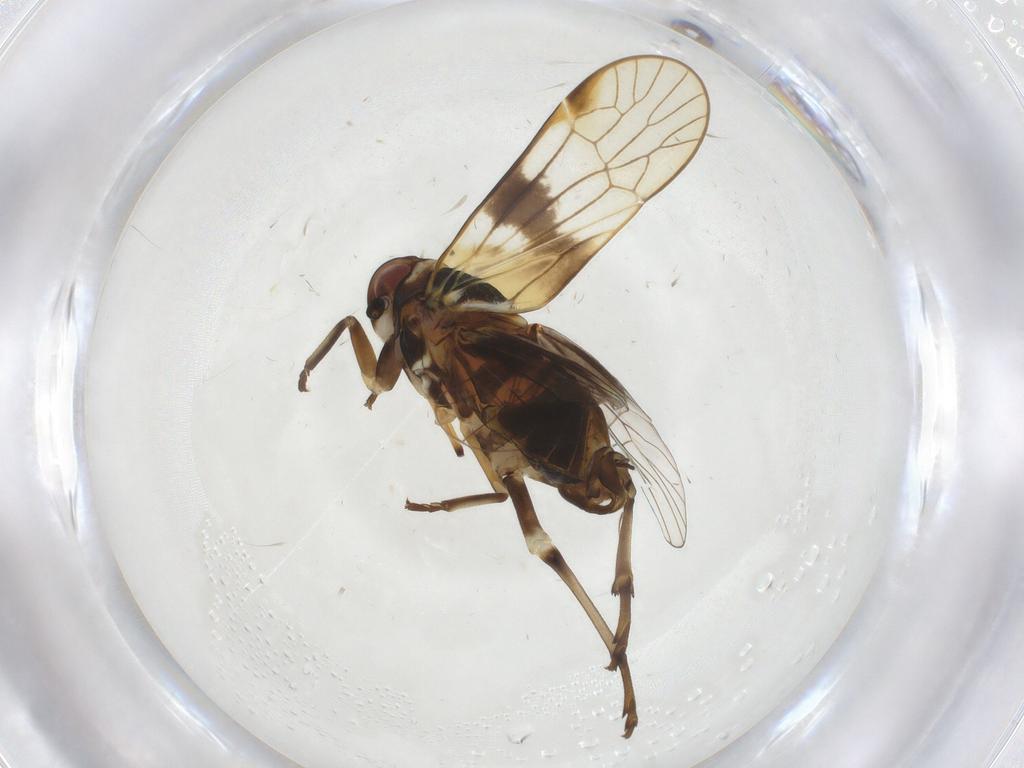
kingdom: Animalia
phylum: Arthropoda
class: Insecta
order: Hemiptera
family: Kinnaridae
